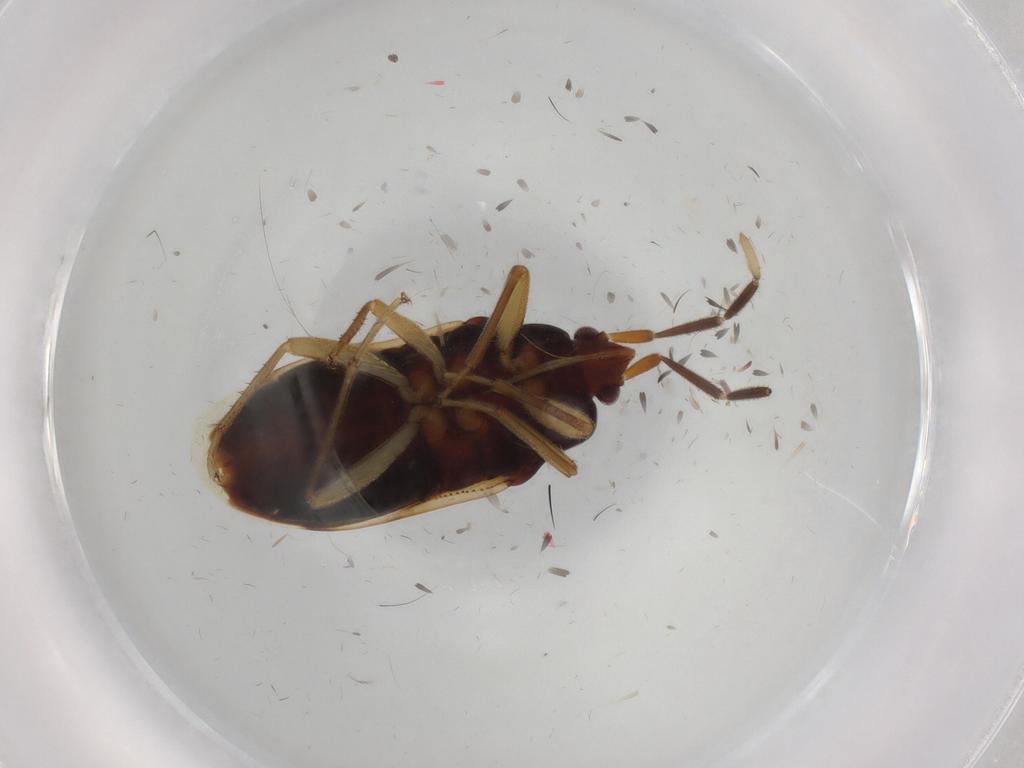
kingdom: Animalia
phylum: Arthropoda
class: Insecta
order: Hemiptera
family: Rhyparochromidae
